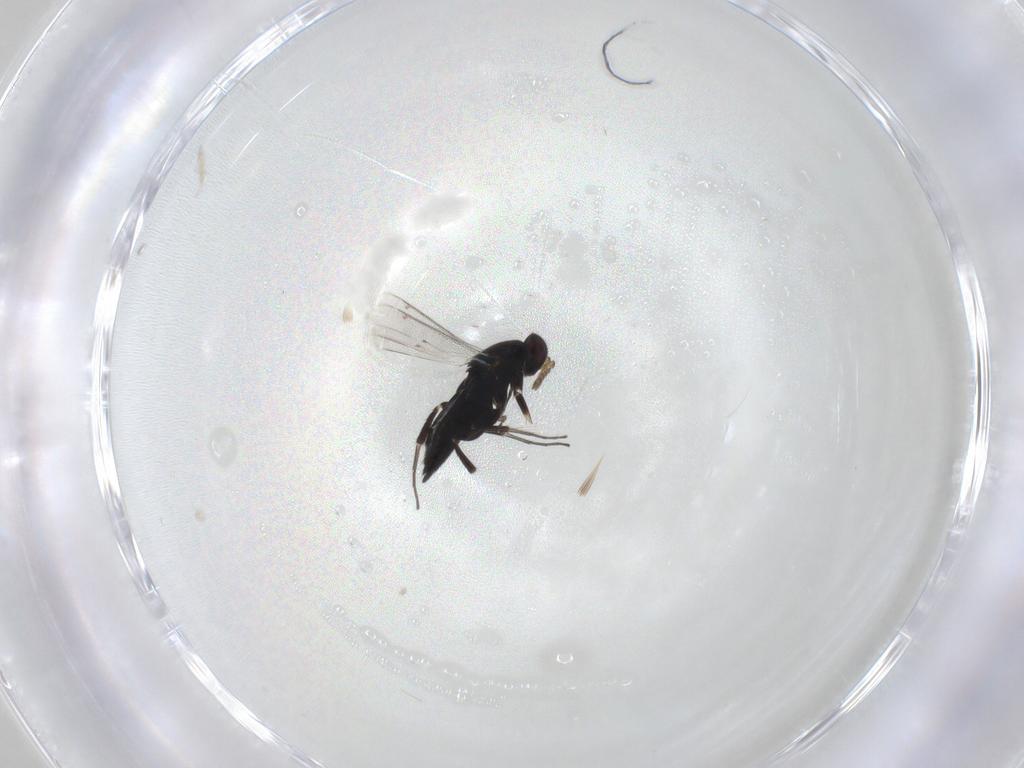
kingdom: Animalia
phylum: Arthropoda
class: Insecta
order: Hymenoptera
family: Eulophidae
